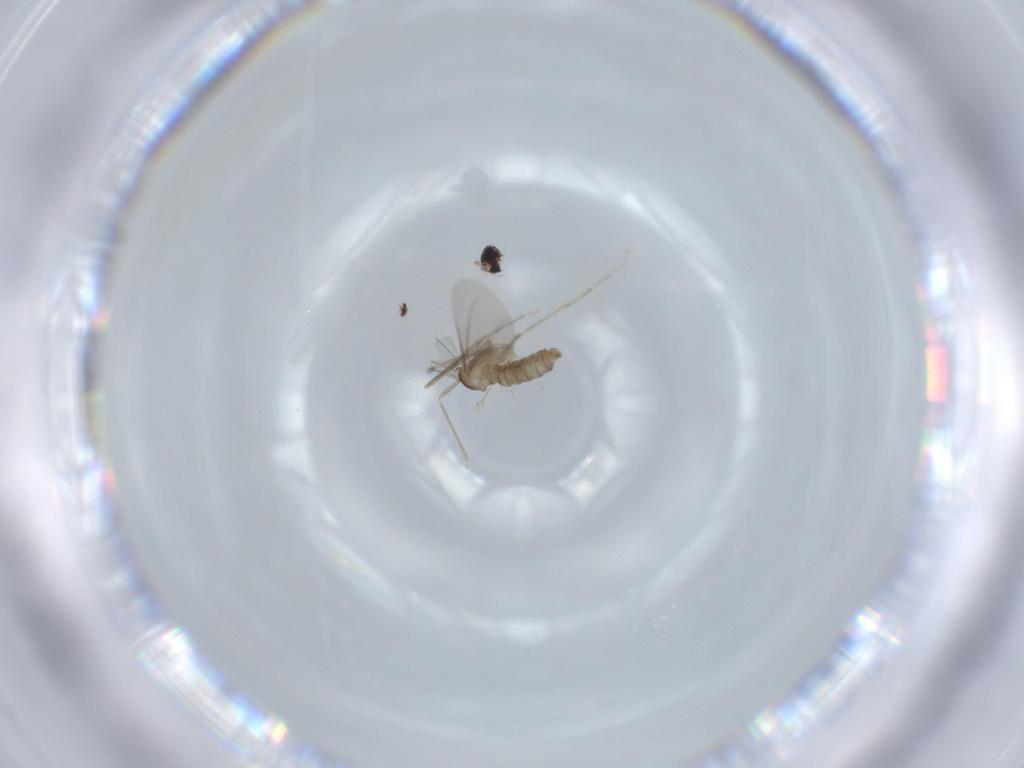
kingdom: Animalia
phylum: Arthropoda
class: Insecta
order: Diptera
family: Cecidomyiidae
